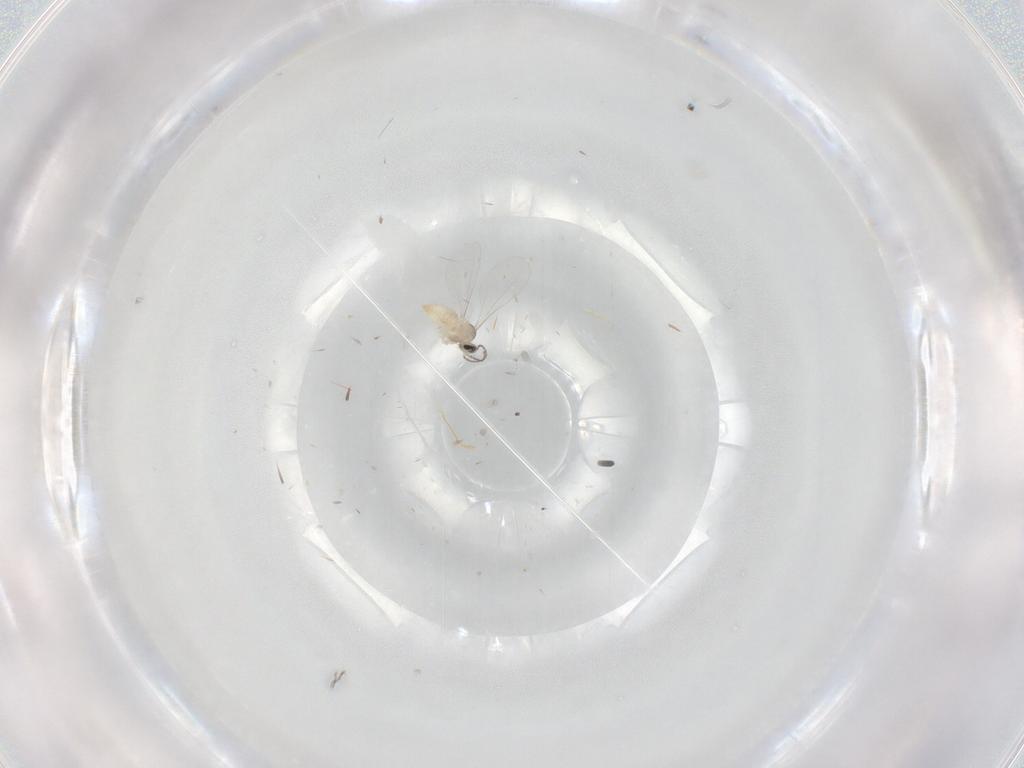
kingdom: Animalia
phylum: Arthropoda
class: Insecta
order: Diptera
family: Cecidomyiidae
